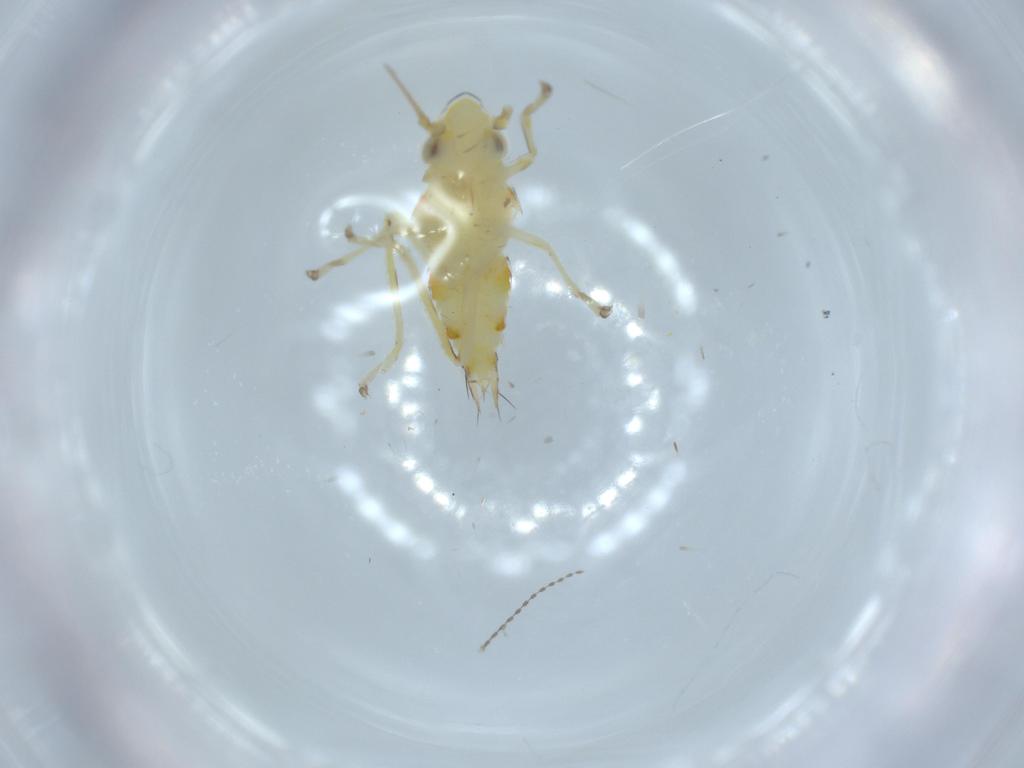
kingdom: Animalia
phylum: Arthropoda
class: Insecta
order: Hemiptera
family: Cicadellidae
